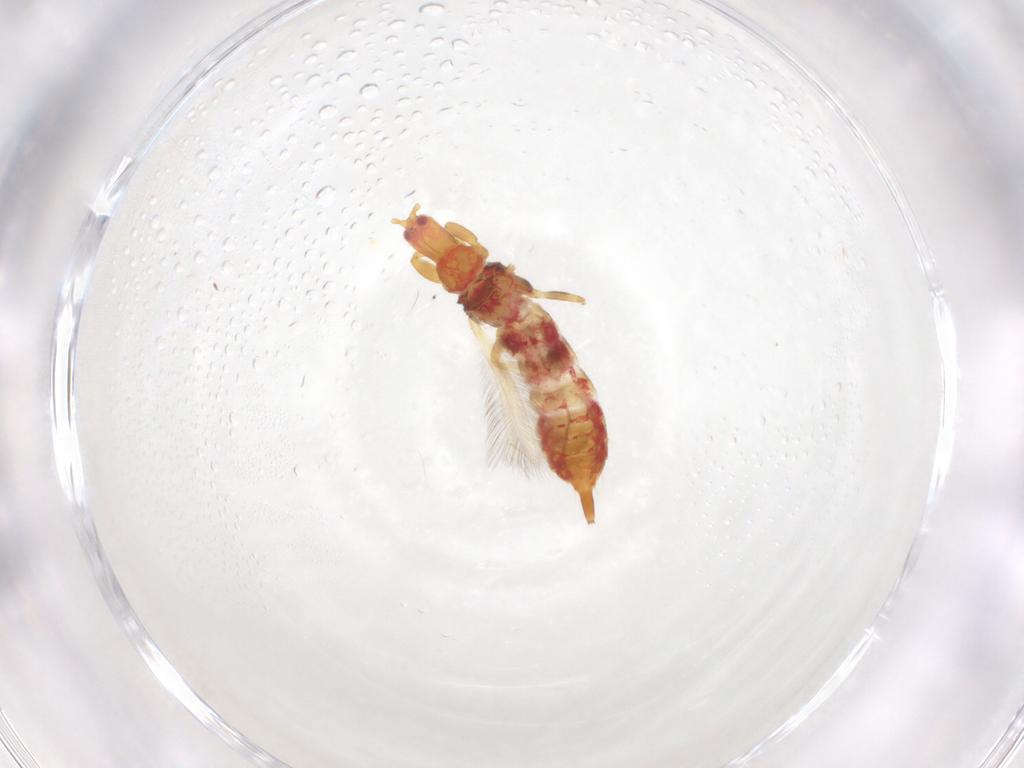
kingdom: Animalia
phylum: Arthropoda
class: Insecta
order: Thysanoptera
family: Phlaeothripidae
